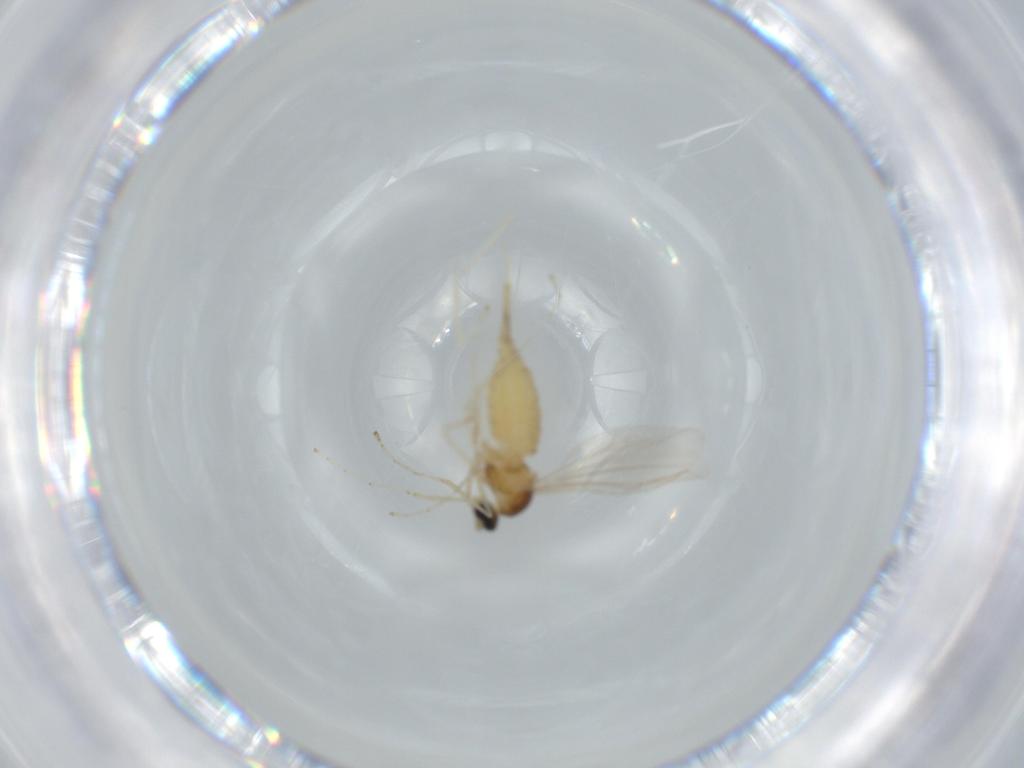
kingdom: Animalia
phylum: Arthropoda
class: Insecta
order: Diptera
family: Cecidomyiidae
